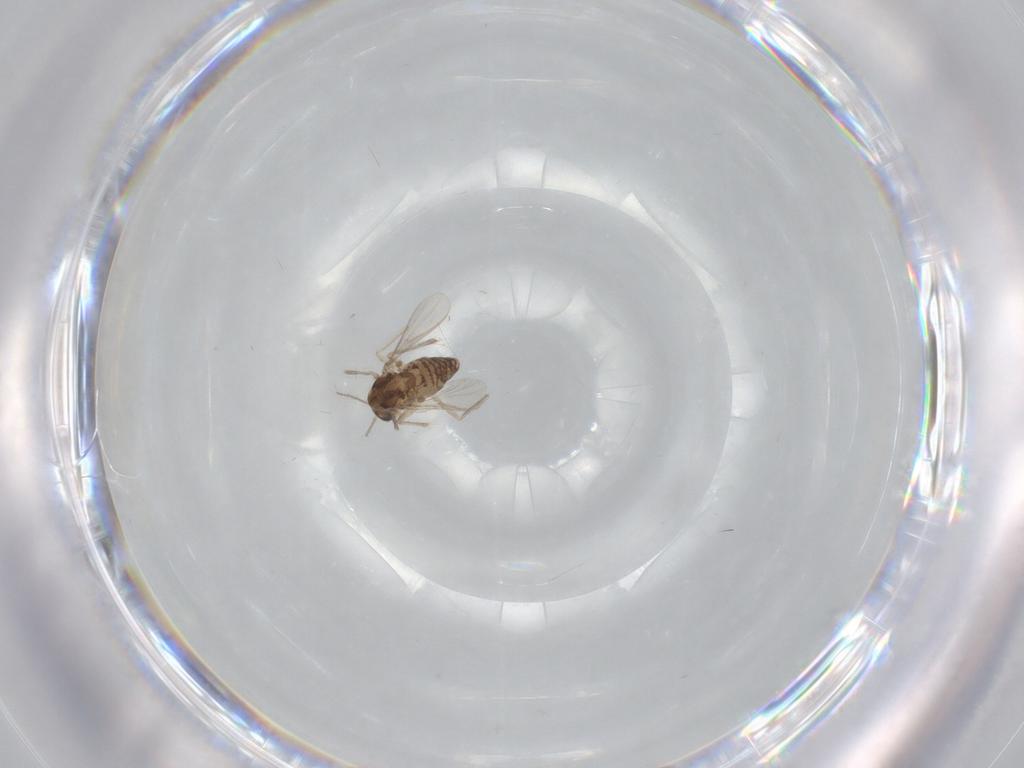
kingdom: Animalia
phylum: Arthropoda
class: Insecta
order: Diptera
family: Chironomidae
